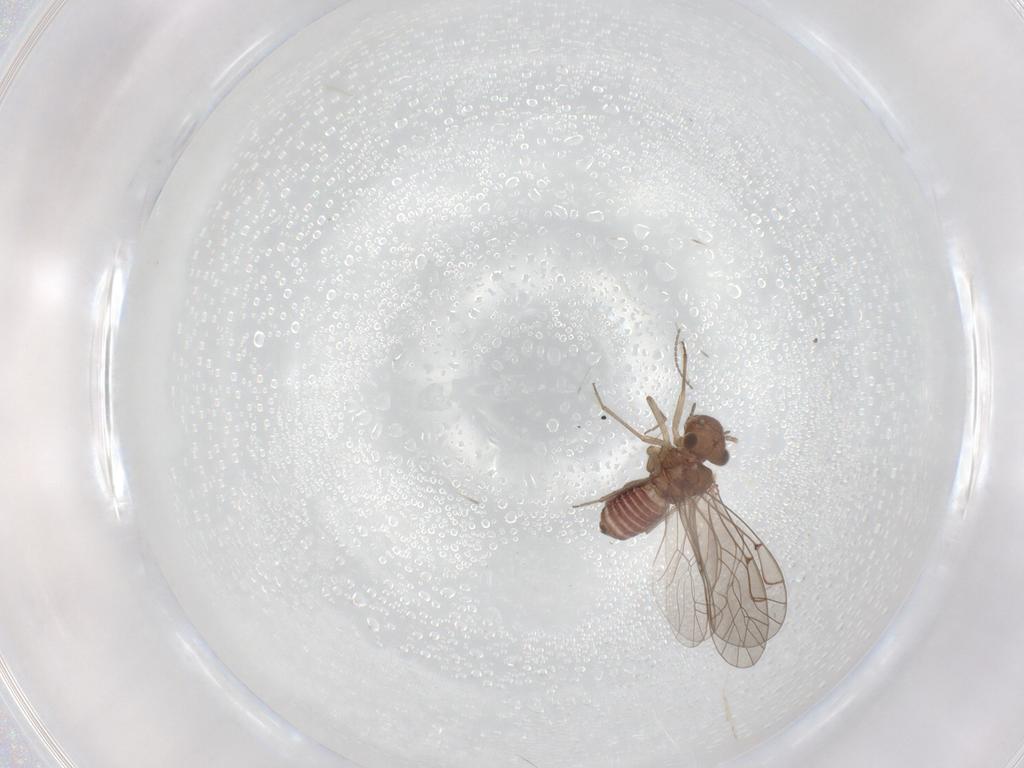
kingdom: Animalia
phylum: Arthropoda
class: Insecta
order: Psocodea
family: Lachesillidae
